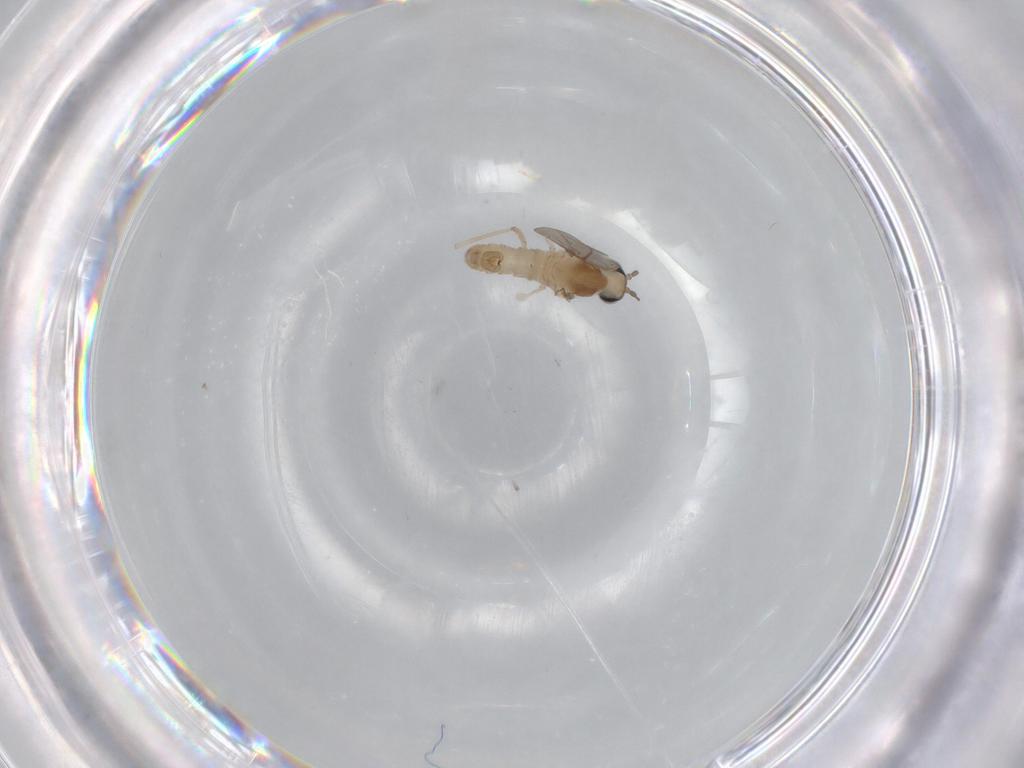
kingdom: Animalia
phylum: Arthropoda
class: Insecta
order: Diptera
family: Cecidomyiidae
